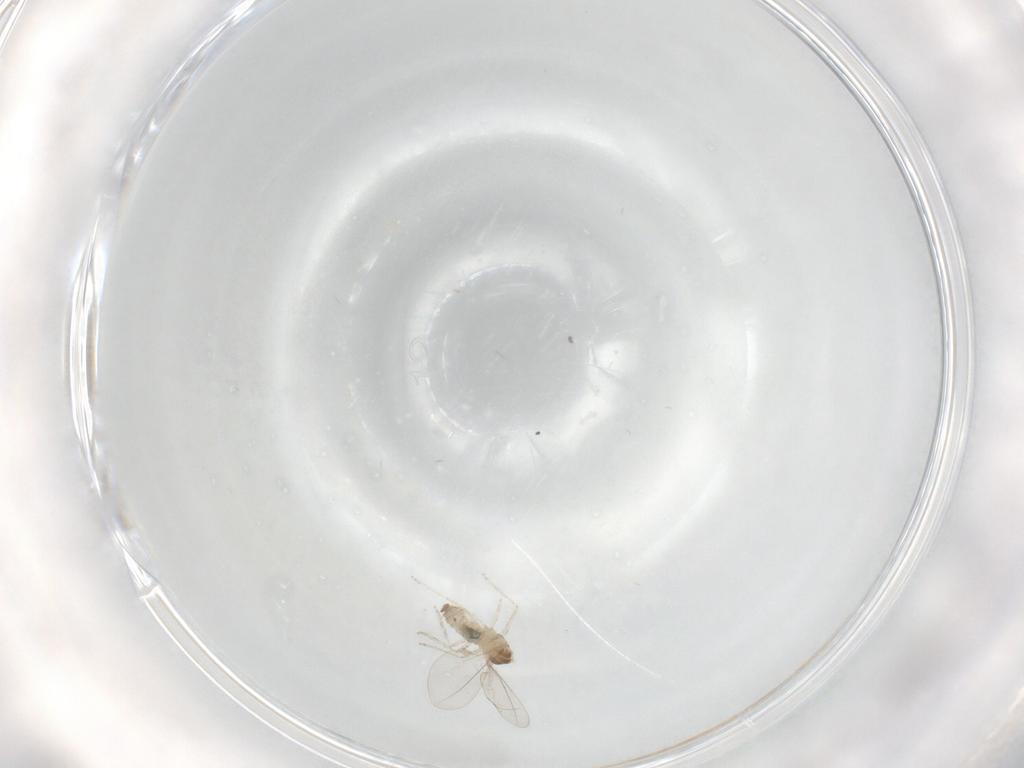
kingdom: Animalia
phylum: Arthropoda
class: Insecta
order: Diptera
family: Cecidomyiidae
